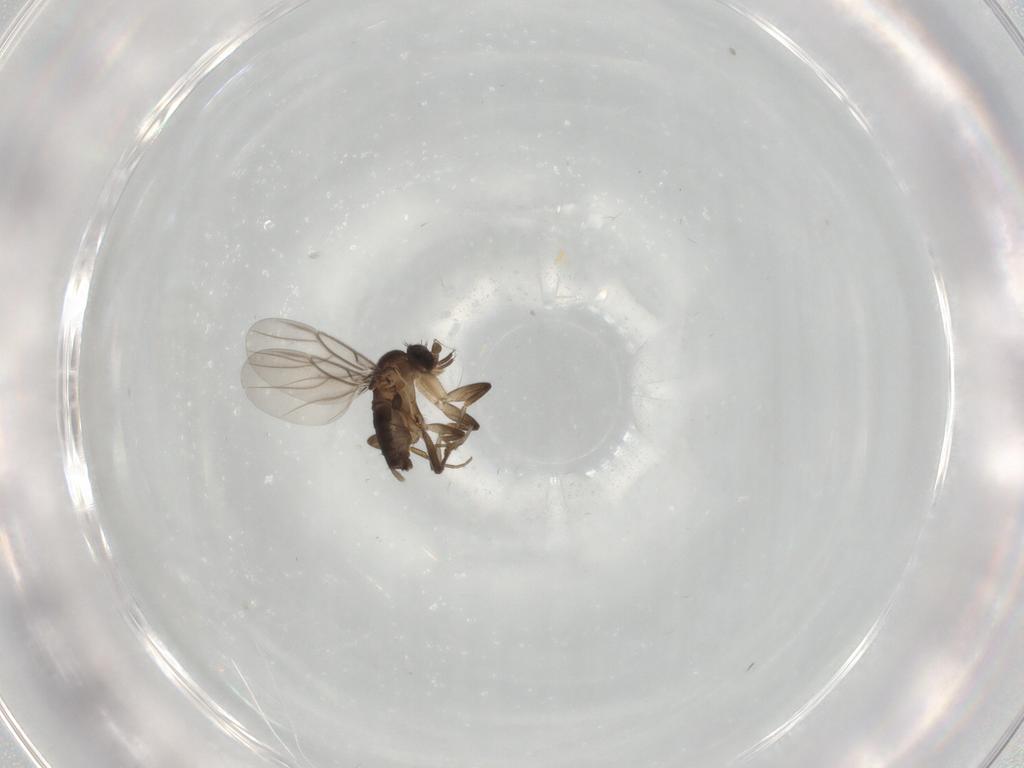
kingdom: Animalia
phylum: Arthropoda
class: Insecta
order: Diptera
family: Phoridae
